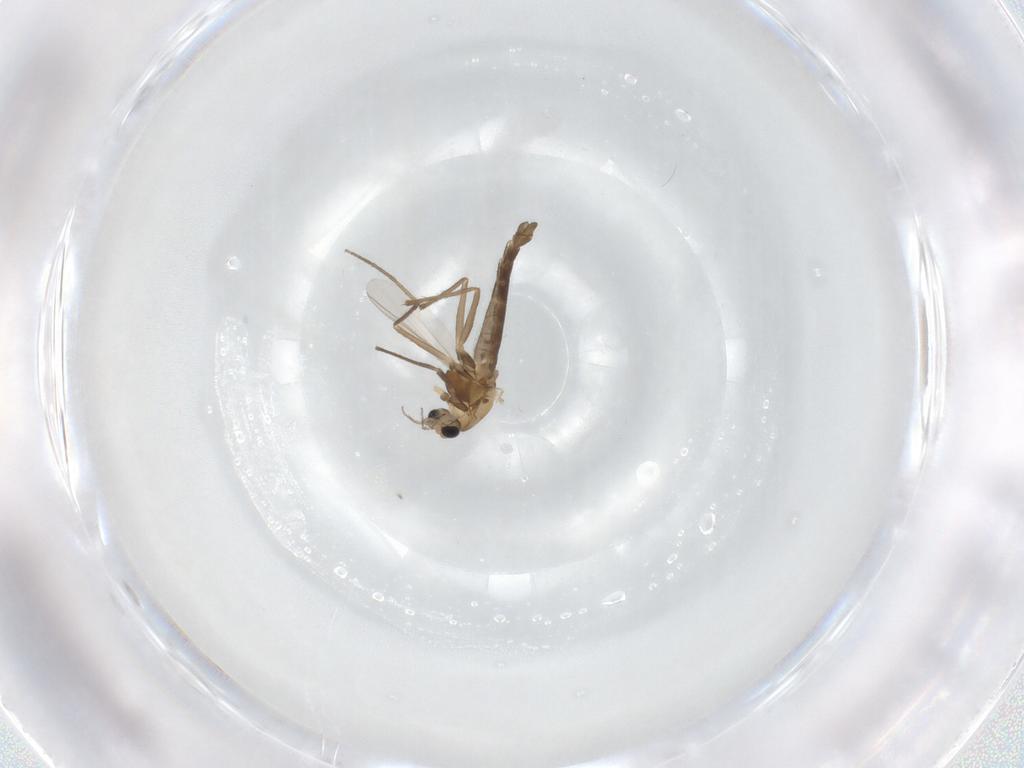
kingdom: Animalia
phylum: Arthropoda
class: Insecta
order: Diptera
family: Chironomidae
